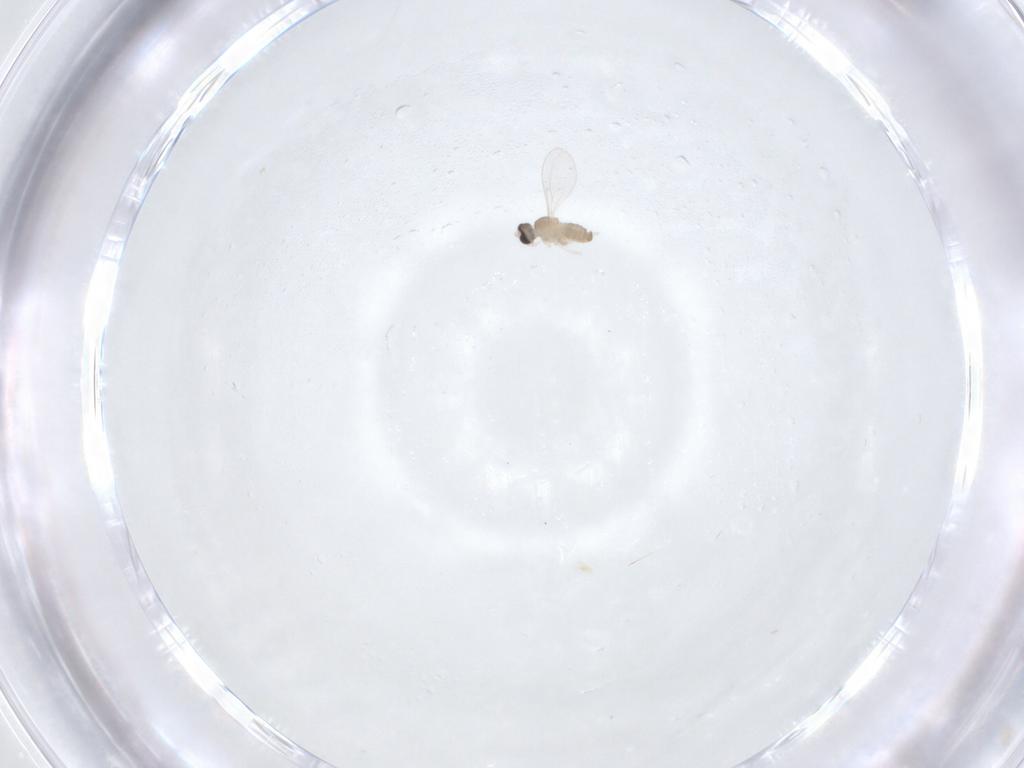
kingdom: Animalia
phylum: Arthropoda
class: Insecta
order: Diptera
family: Cecidomyiidae
